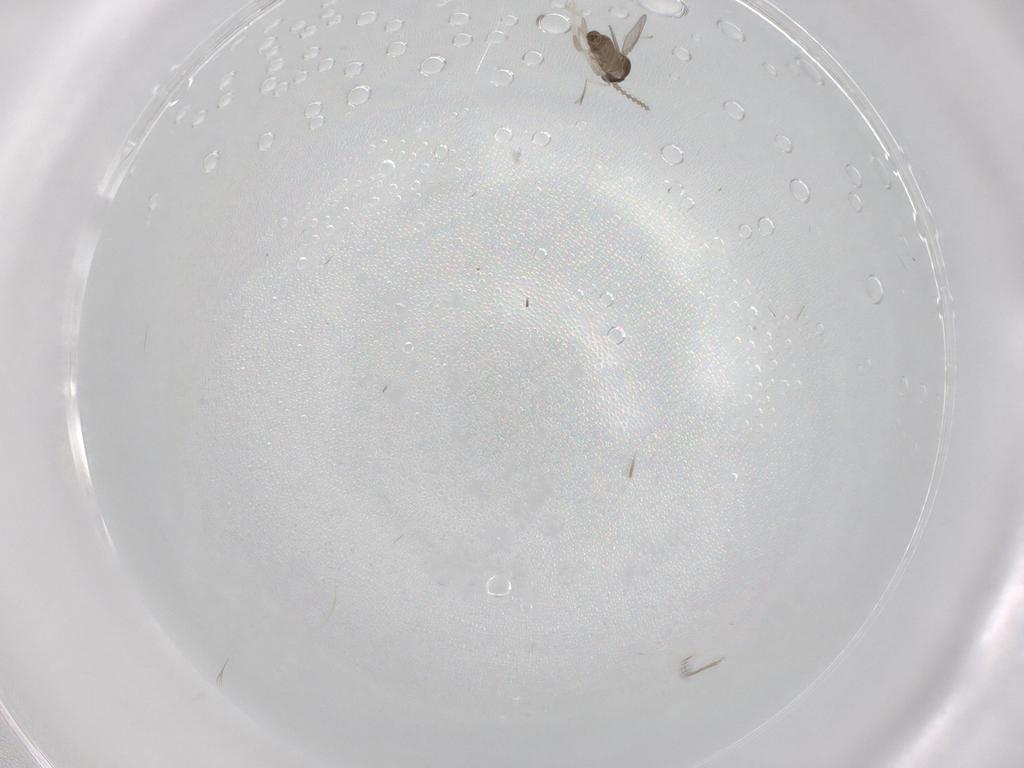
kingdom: Animalia
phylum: Arthropoda
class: Insecta
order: Diptera
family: Cecidomyiidae
